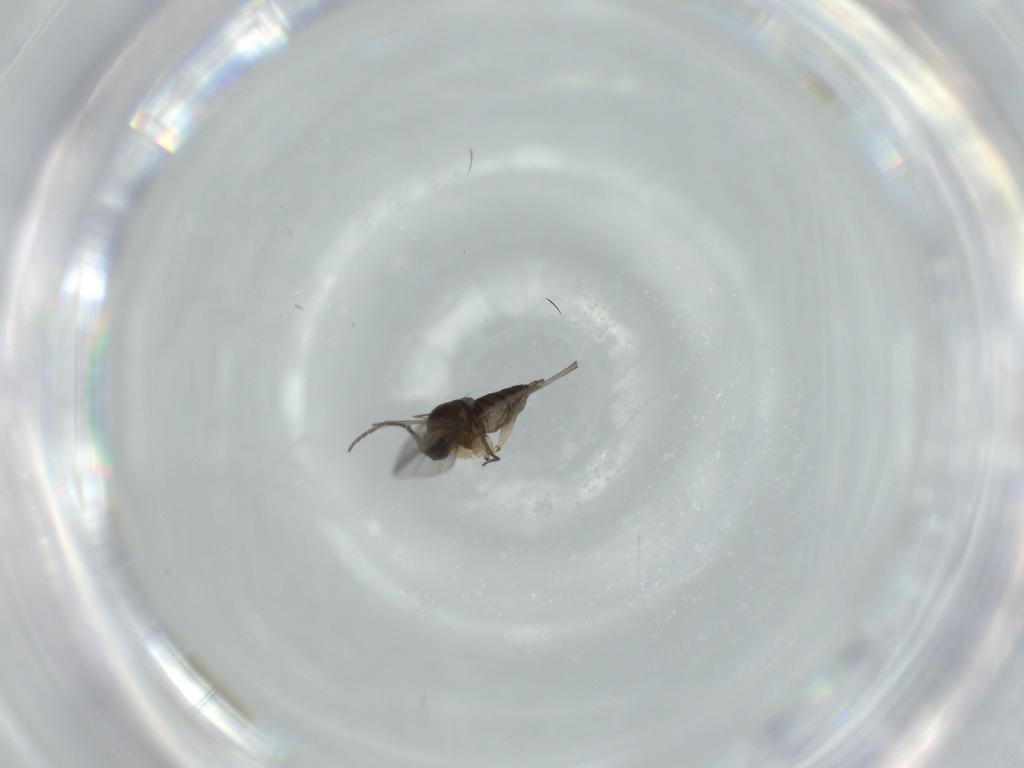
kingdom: Animalia
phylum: Arthropoda
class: Insecta
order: Diptera
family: Sciaridae
